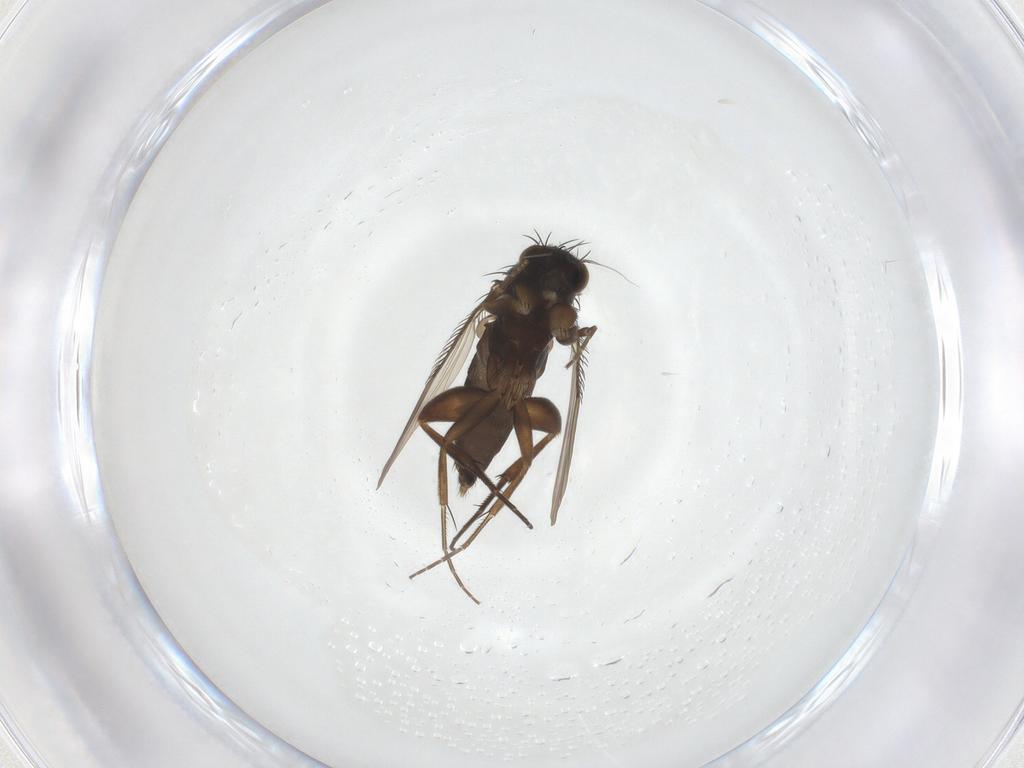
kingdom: Animalia
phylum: Arthropoda
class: Insecta
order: Diptera
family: Phoridae
